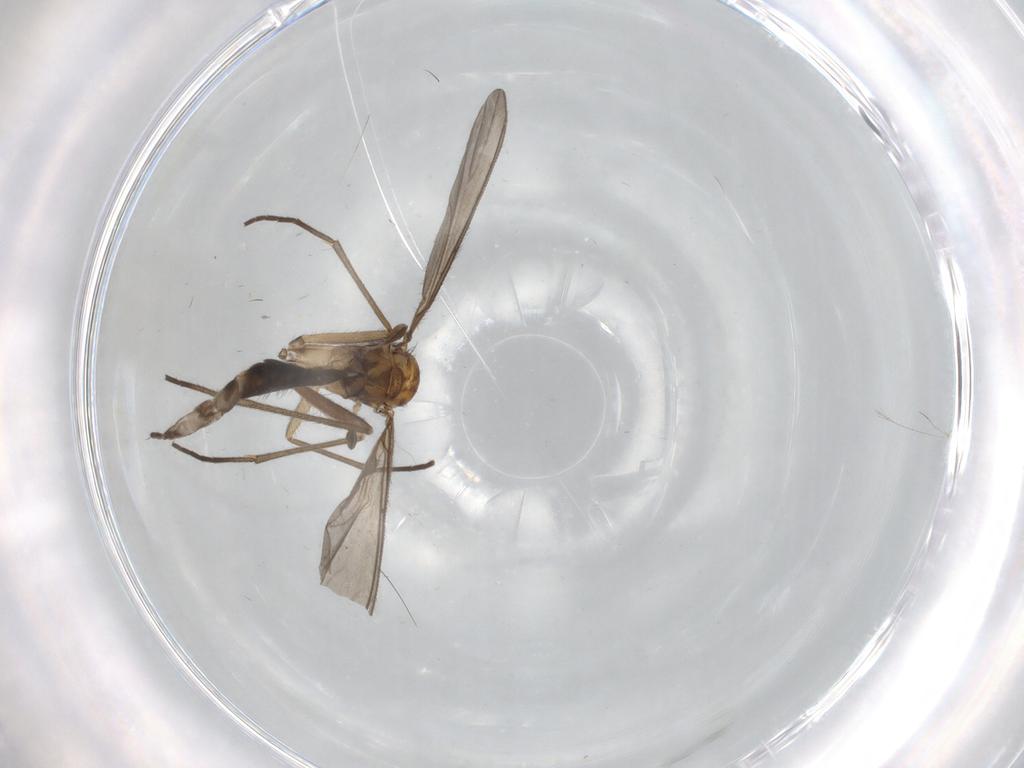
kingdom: Animalia
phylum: Arthropoda
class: Insecta
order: Diptera
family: Sciaridae
